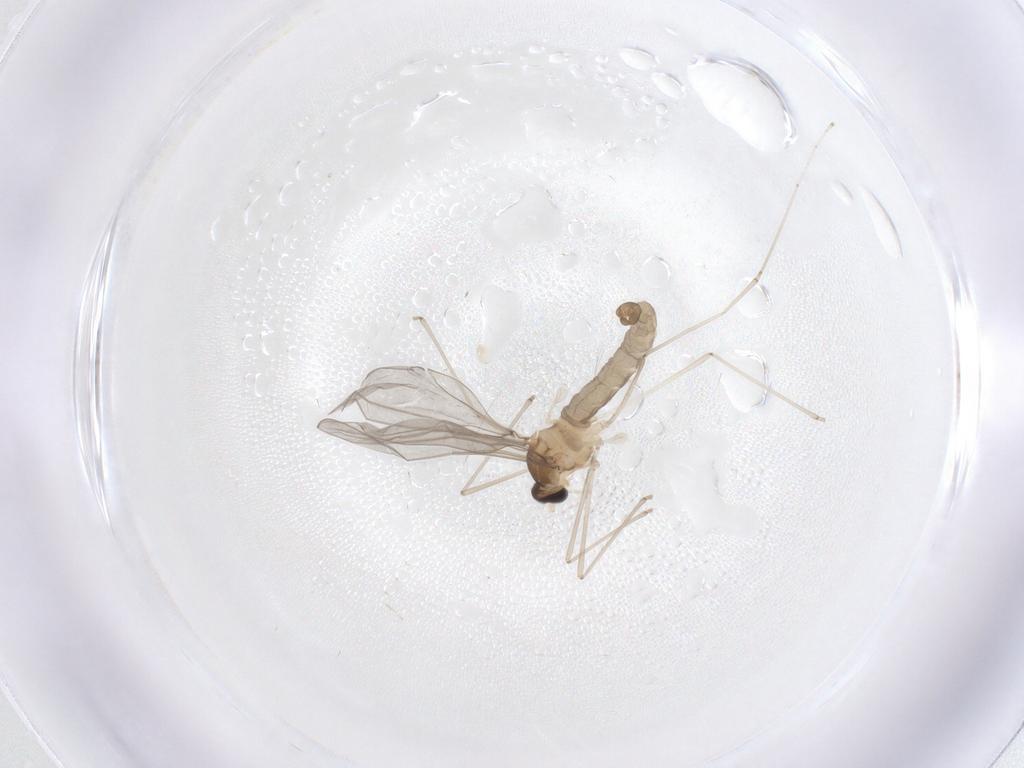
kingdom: Animalia
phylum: Arthropoda
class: Insecta
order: Diptera
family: Cecidomyiidae
